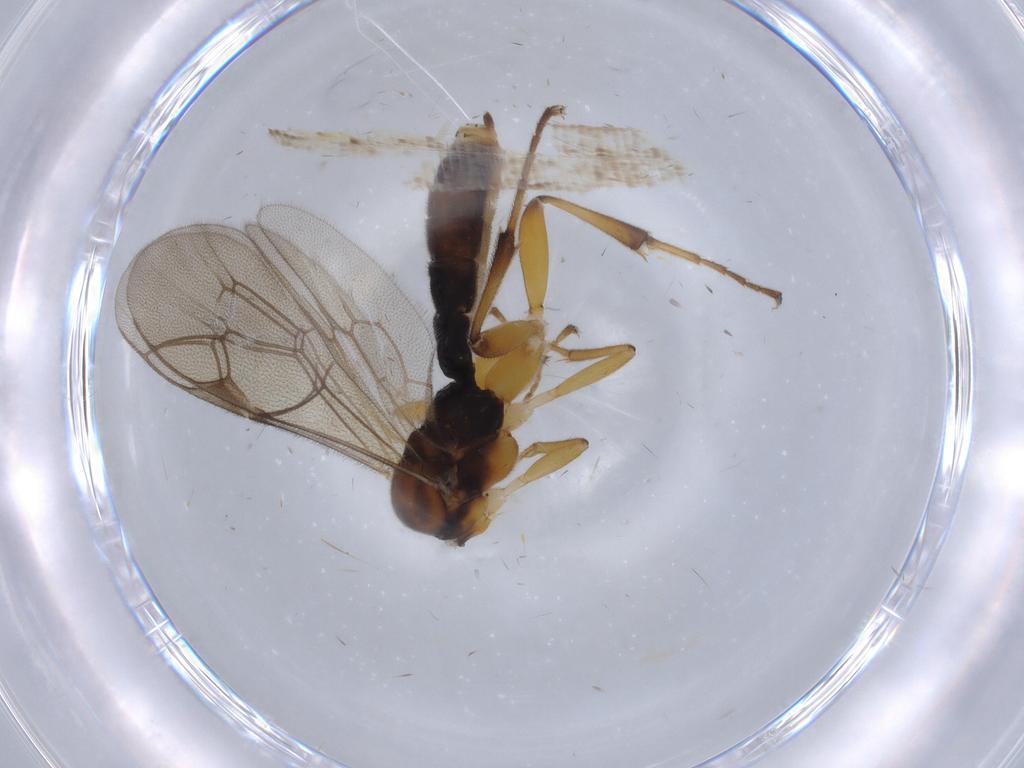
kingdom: Animalia
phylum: Arthropoda
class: Insecta
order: Hymenoptera
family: Ichneumonidae
